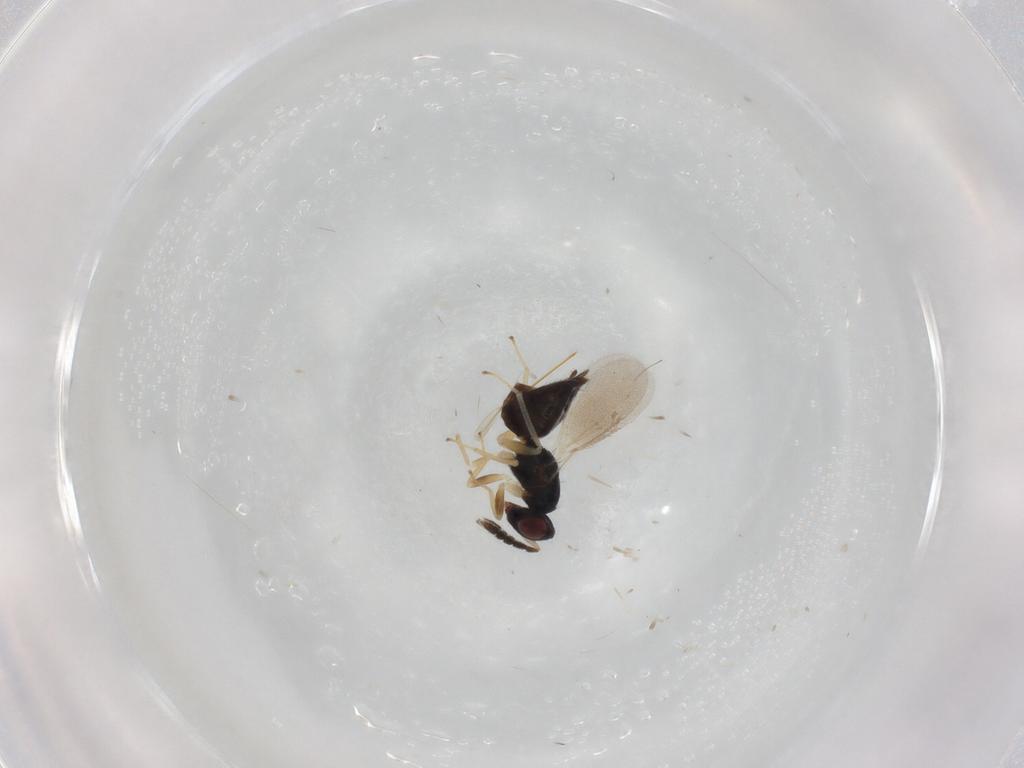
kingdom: Animalia
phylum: Arthropoda
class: Insecta
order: Hymenoptera
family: Eulophidae
